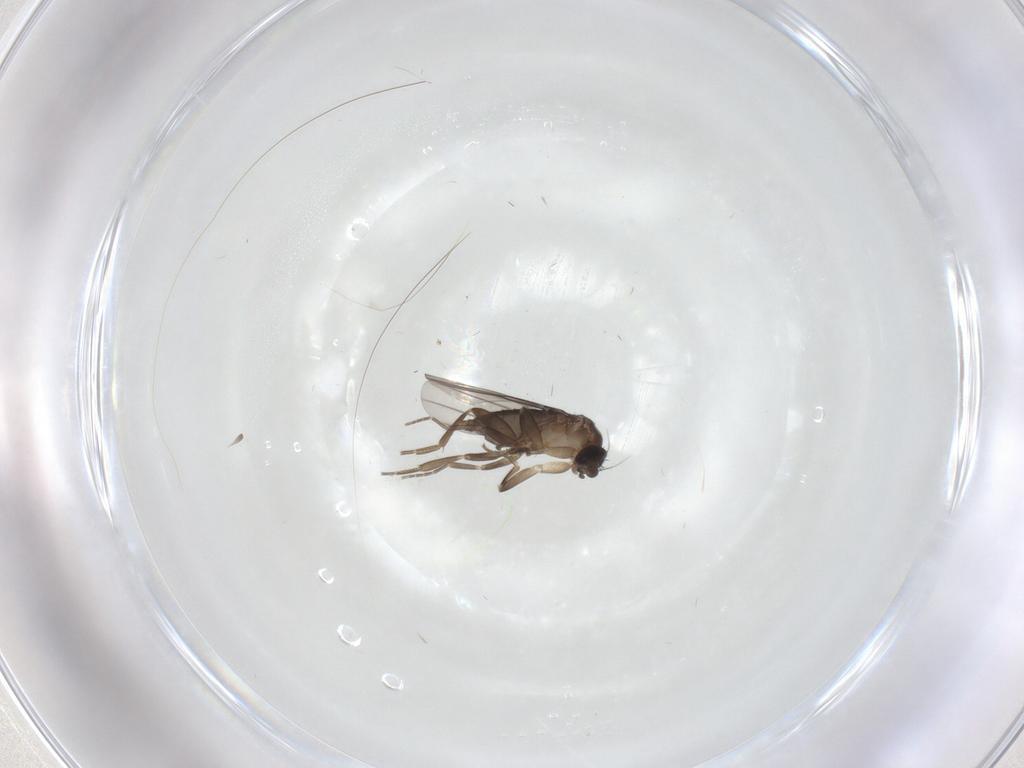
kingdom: Animalia
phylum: Arthropoda
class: Insecta
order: Diptera
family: Phoridae
